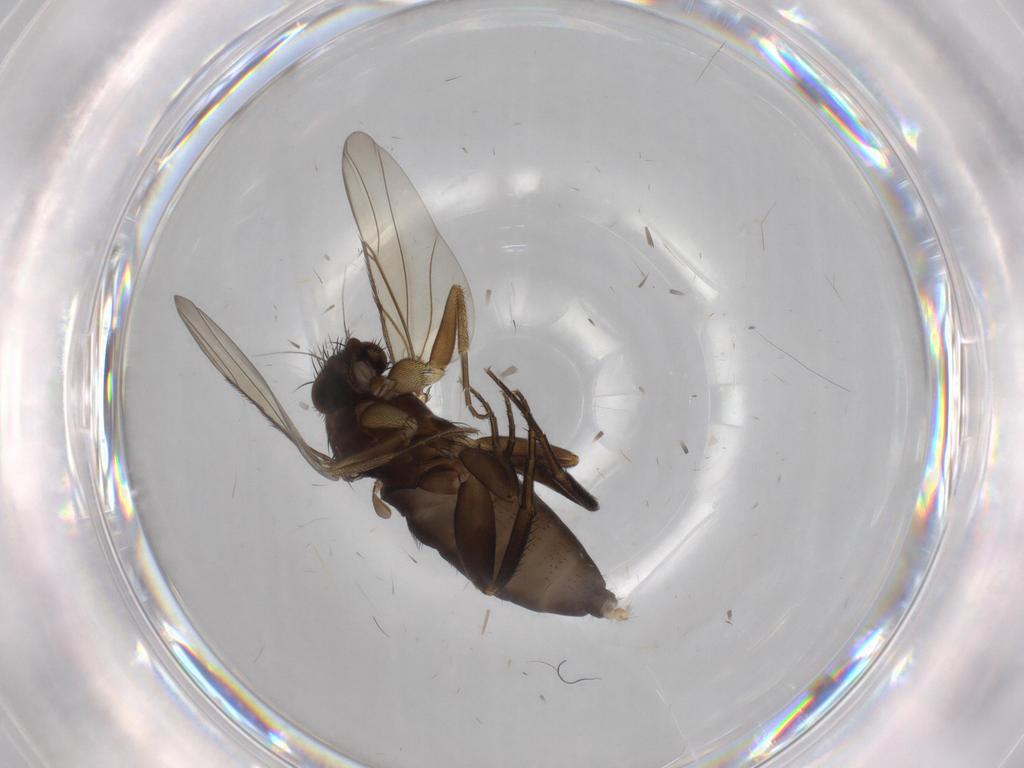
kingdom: Animalia
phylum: Arthropoda
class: Insecta
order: Diptera
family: Phoridae
